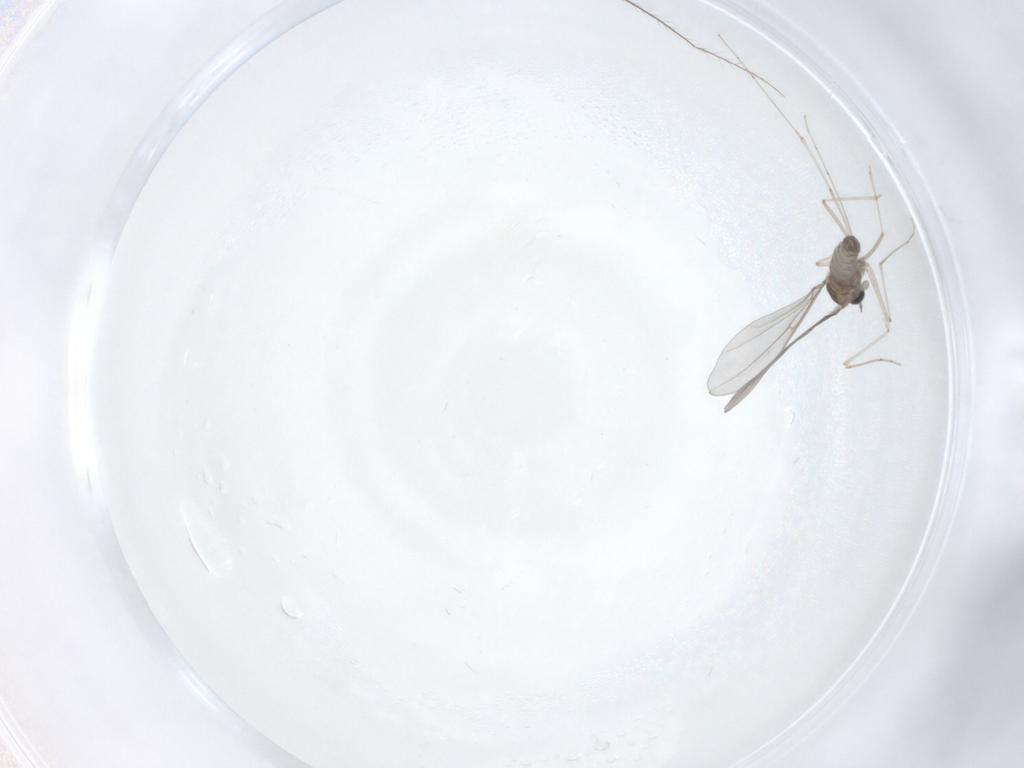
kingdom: Animalia
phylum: Arthropoda
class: Insecta
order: Diptera
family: Cecidomyiidae
